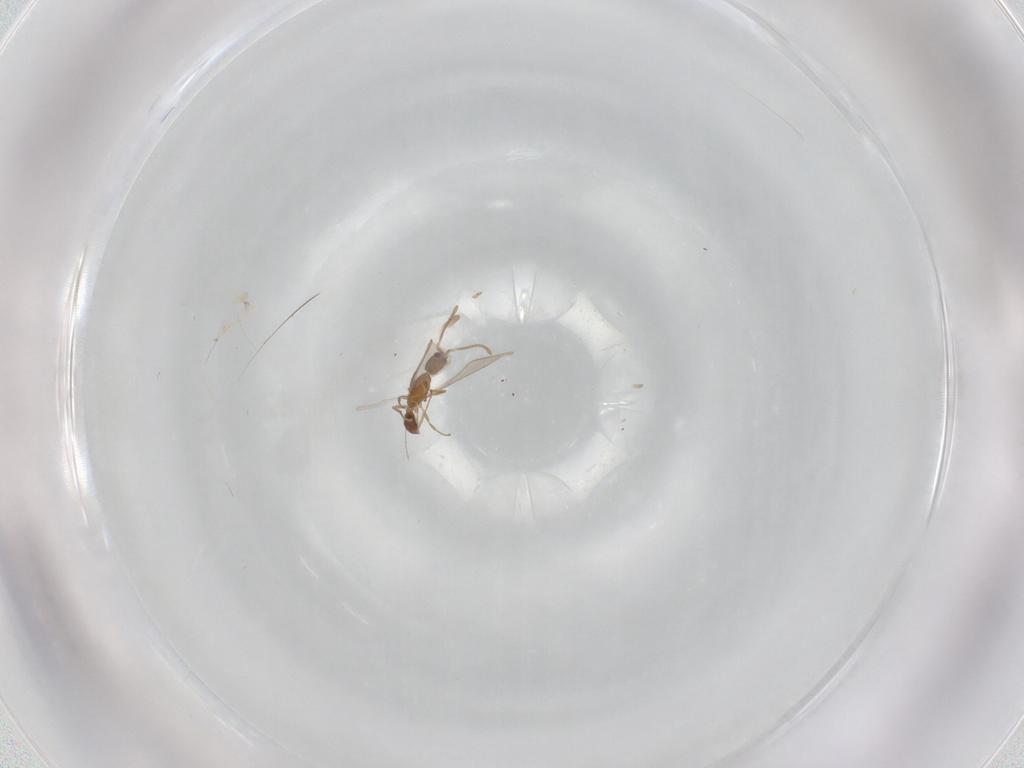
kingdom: Animalia
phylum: Arthropoda
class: Insecta
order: Hymenoptera
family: Formicidae
